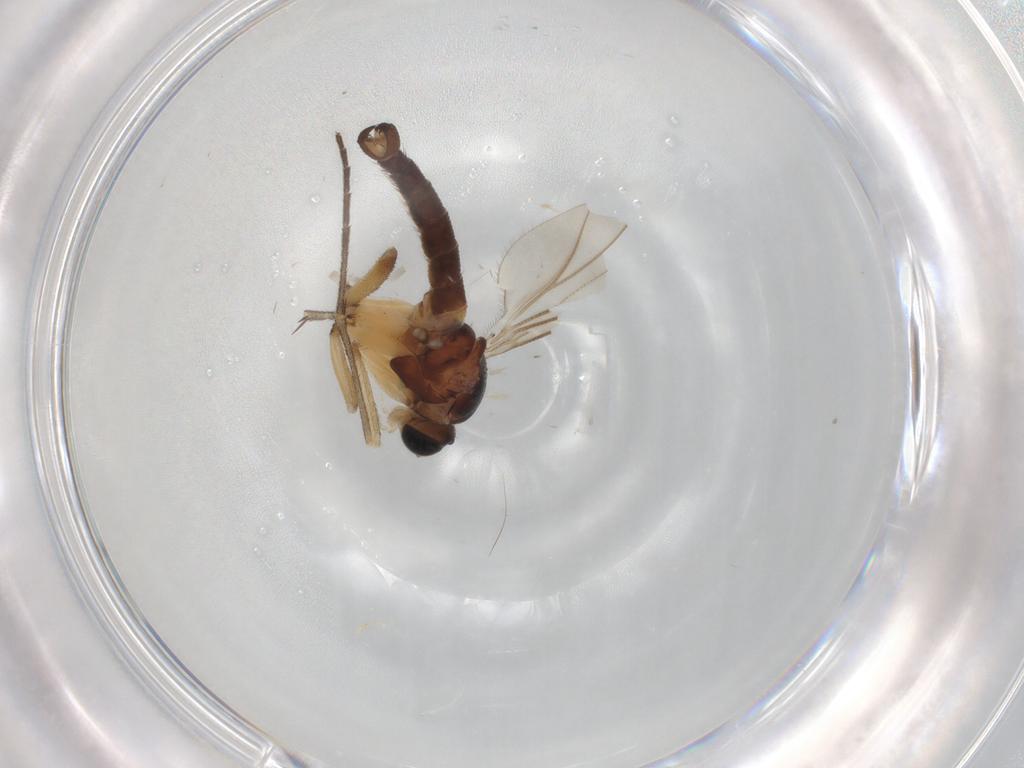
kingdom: Animalia
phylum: Arthropoda
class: Insecta
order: Diptera
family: Sciaridae
